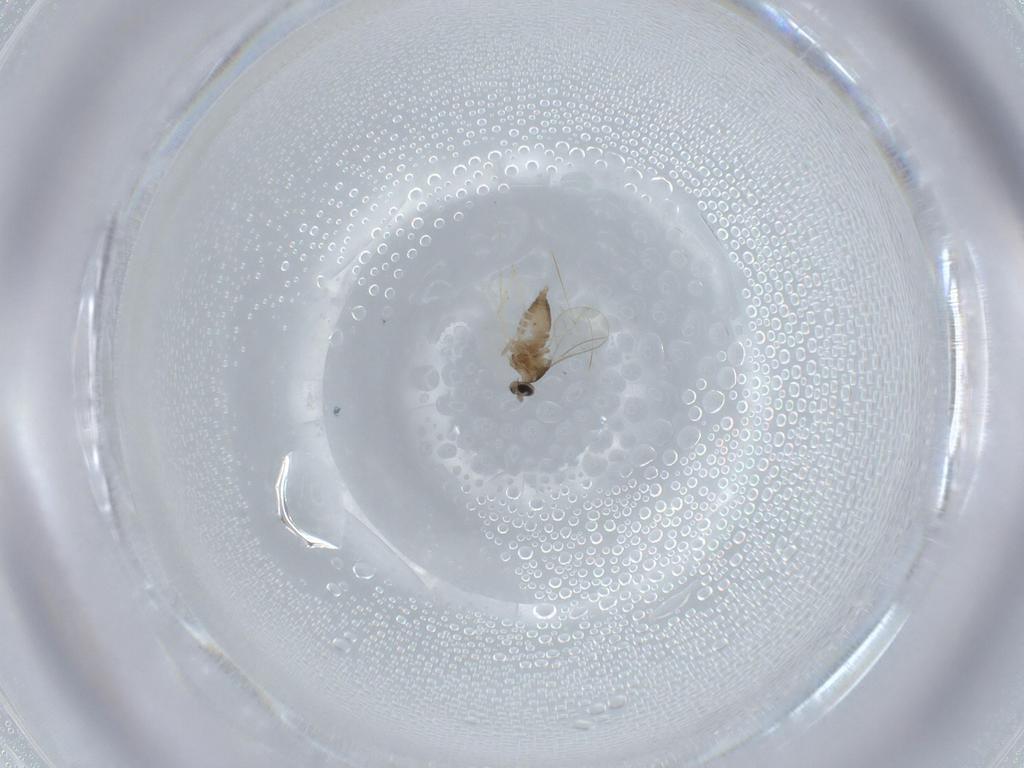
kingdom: Animalia
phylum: Arthropoda
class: Insecta
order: Diptera
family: Cecidomyiidae
